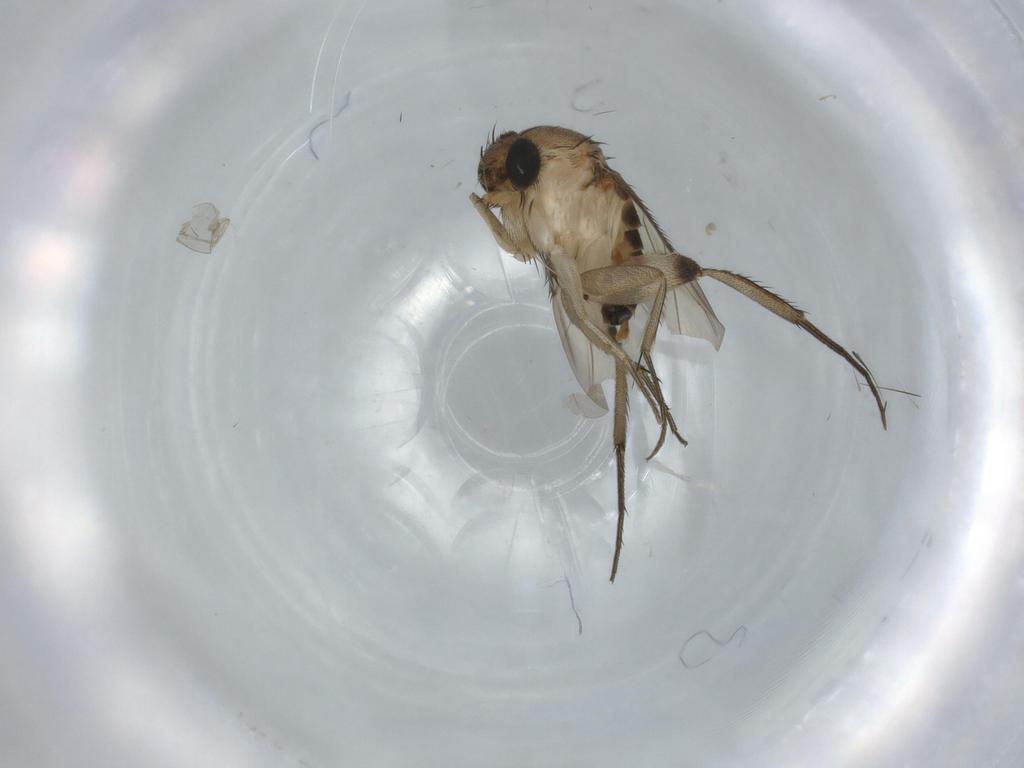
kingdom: Animalia
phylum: Arthropoda
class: Insecta
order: Diptera
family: Phoridae
